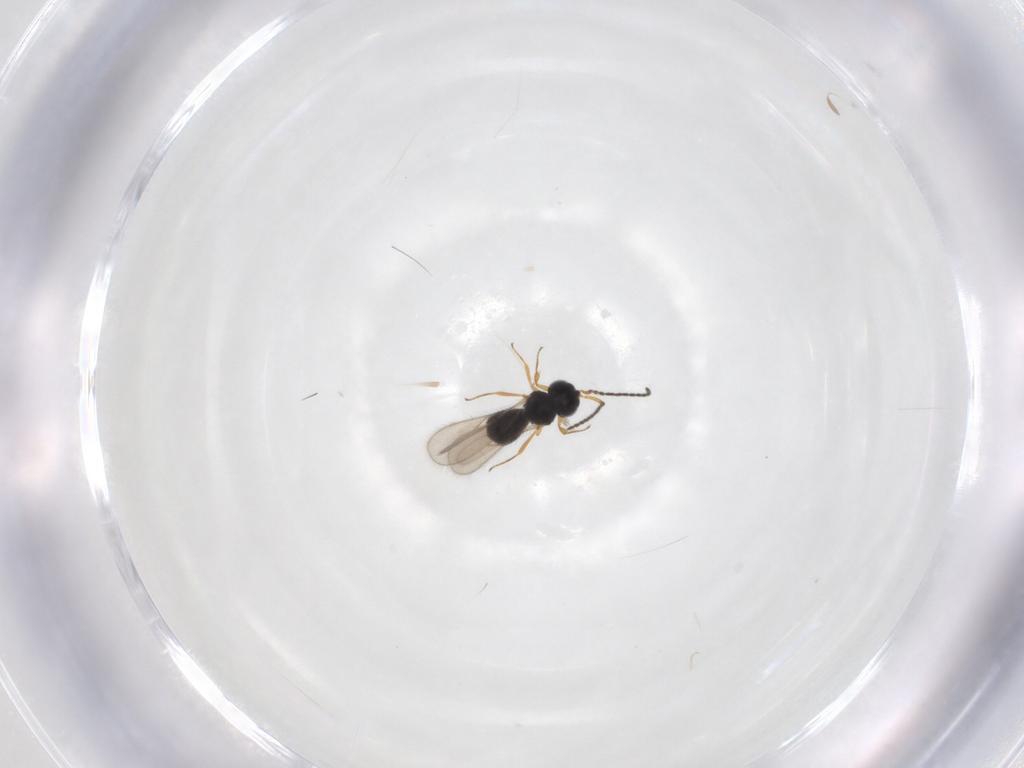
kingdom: Animalia
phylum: Arthropoda
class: Insecta
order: Hymenoptera
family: Scelionidae
